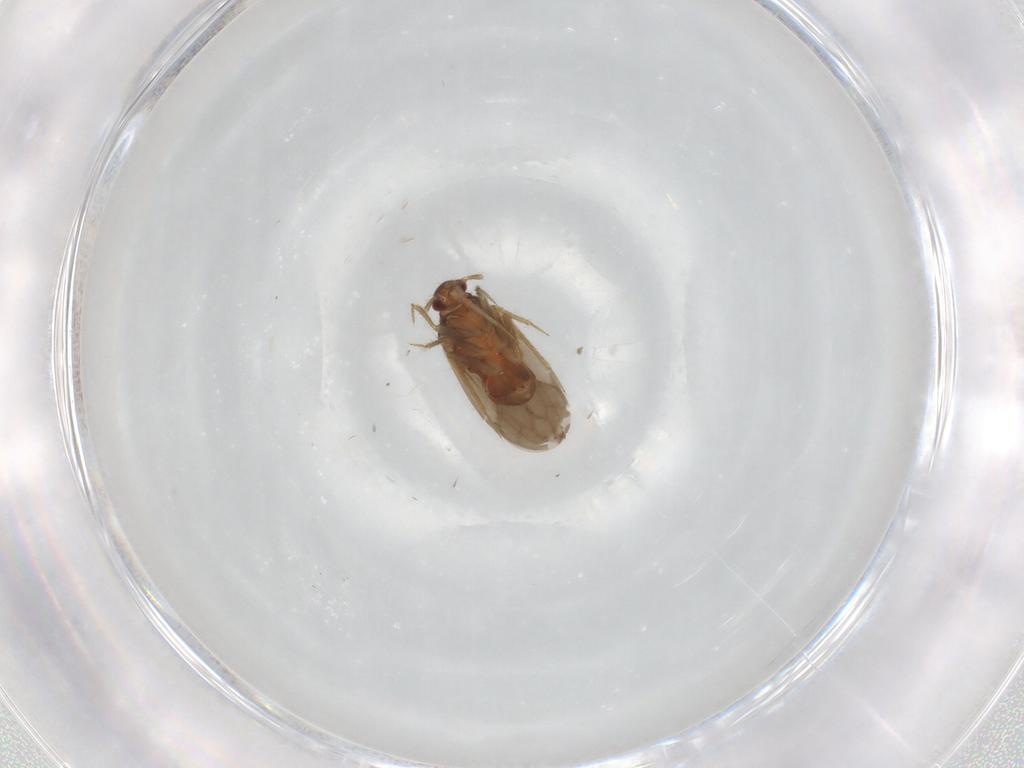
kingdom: Animalia
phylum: Arthropoda
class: Insecta
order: Hemiptera
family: Ceratocombidae
